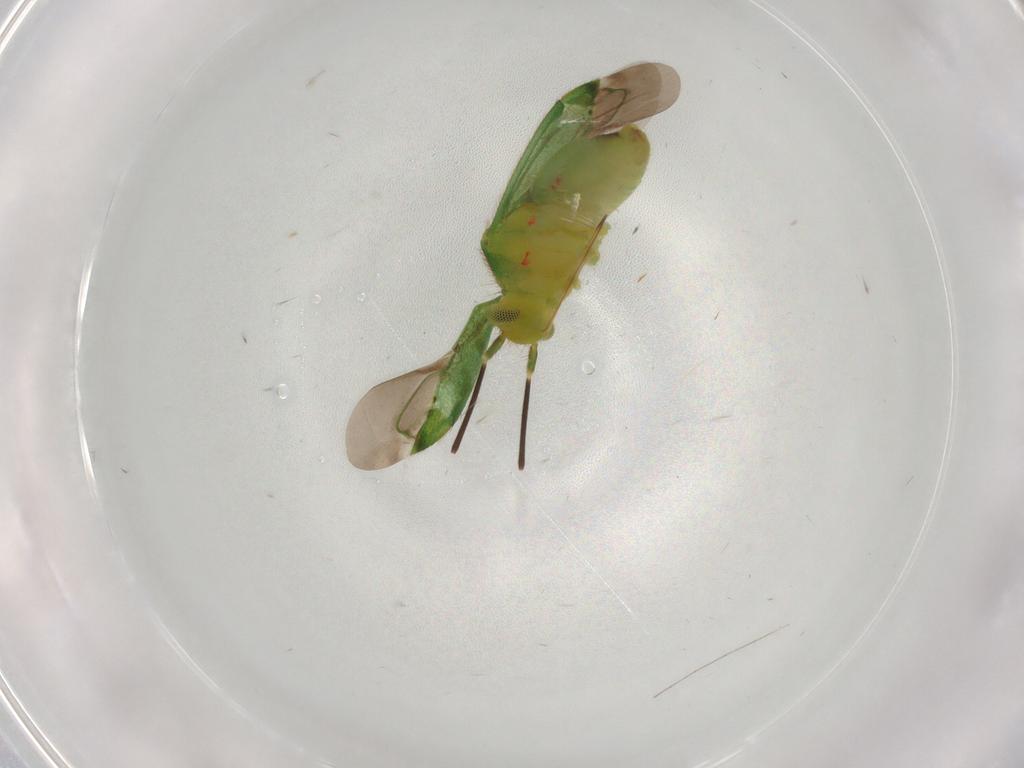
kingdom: Animalia
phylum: Arthropoda
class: Insecta
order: Hemiptera
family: Miridae
